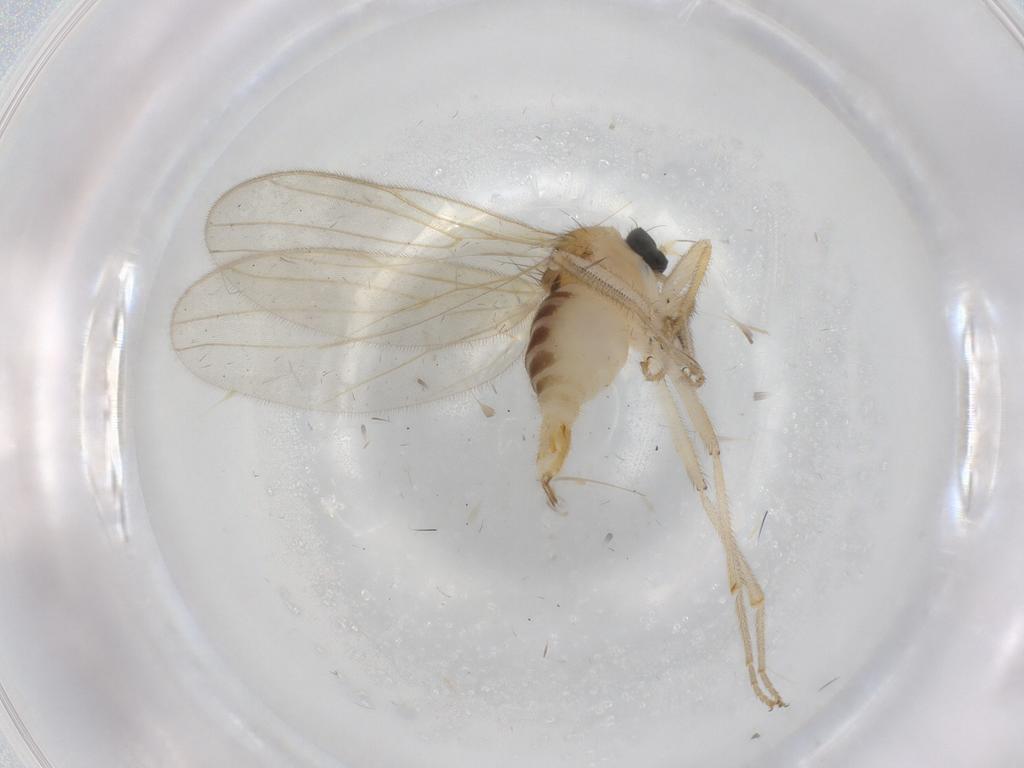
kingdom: Animalia
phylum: Arthropoda
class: Insecta
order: Diptera
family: Hybotidae
